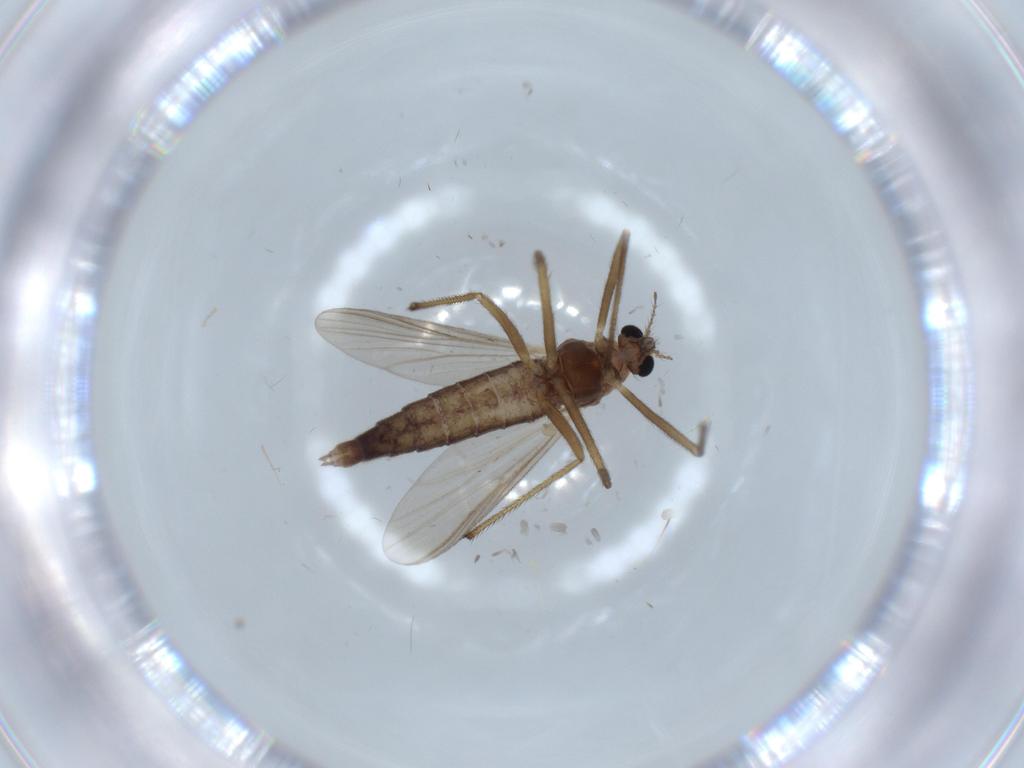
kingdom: Animalia
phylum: Arthropoda
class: Insecta
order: Diptera
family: Chironomidae
